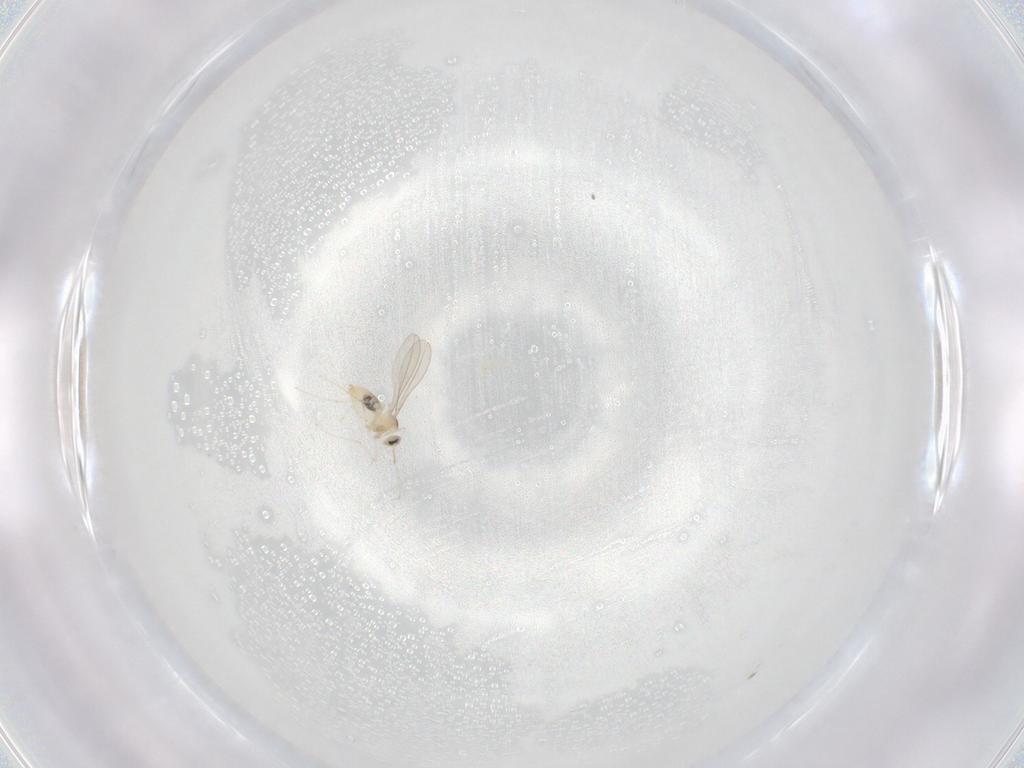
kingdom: Animalia
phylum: Arthropoda
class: Insecta
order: Diptera
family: Cecidomyiidae
